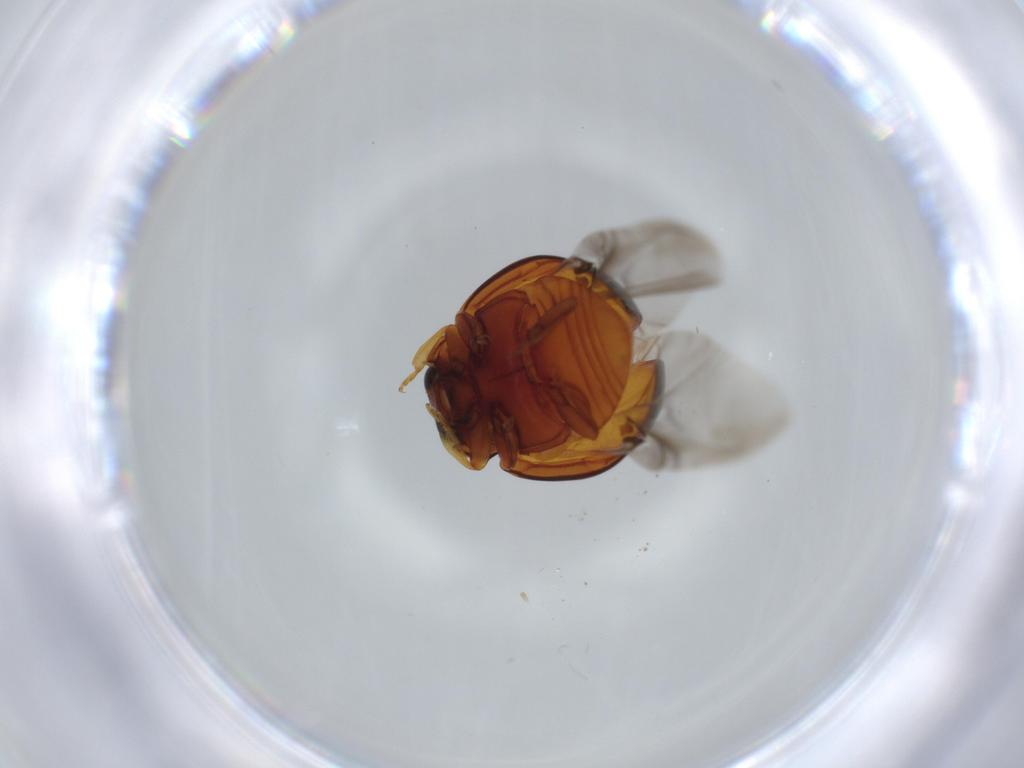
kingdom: Animalia
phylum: Arthropoda
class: Insecta
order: Coleoptera
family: Coccinellidae
